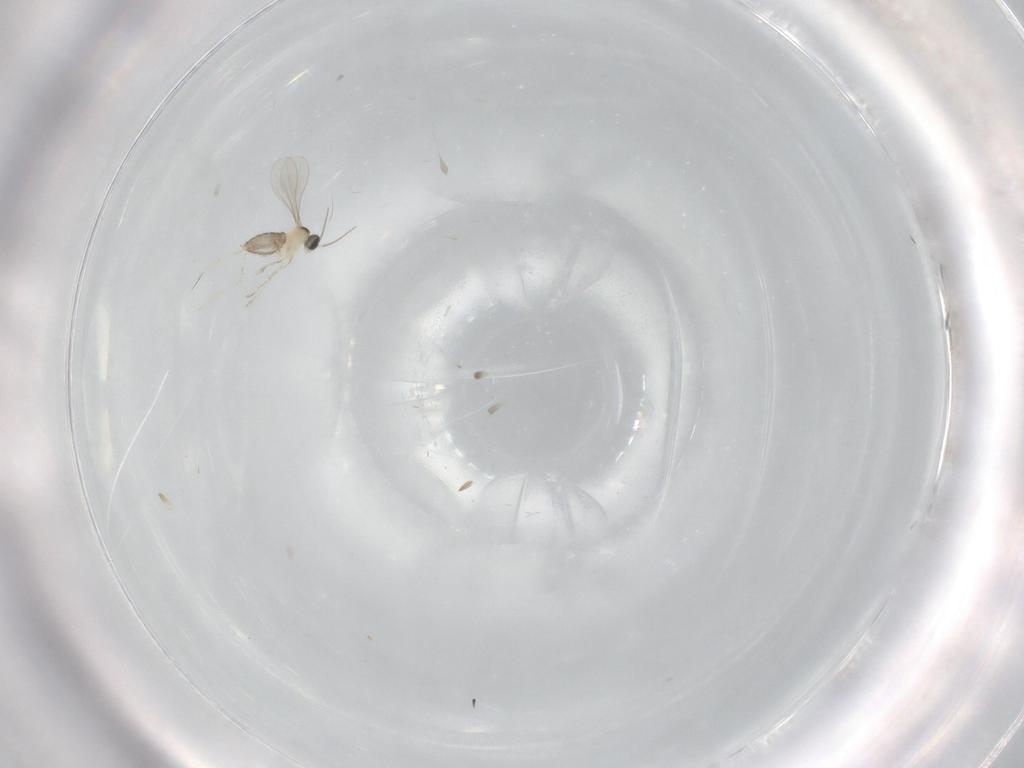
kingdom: Animalia
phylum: Arthropoda
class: Insecta
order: Diptera
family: Cecidomyiidae
